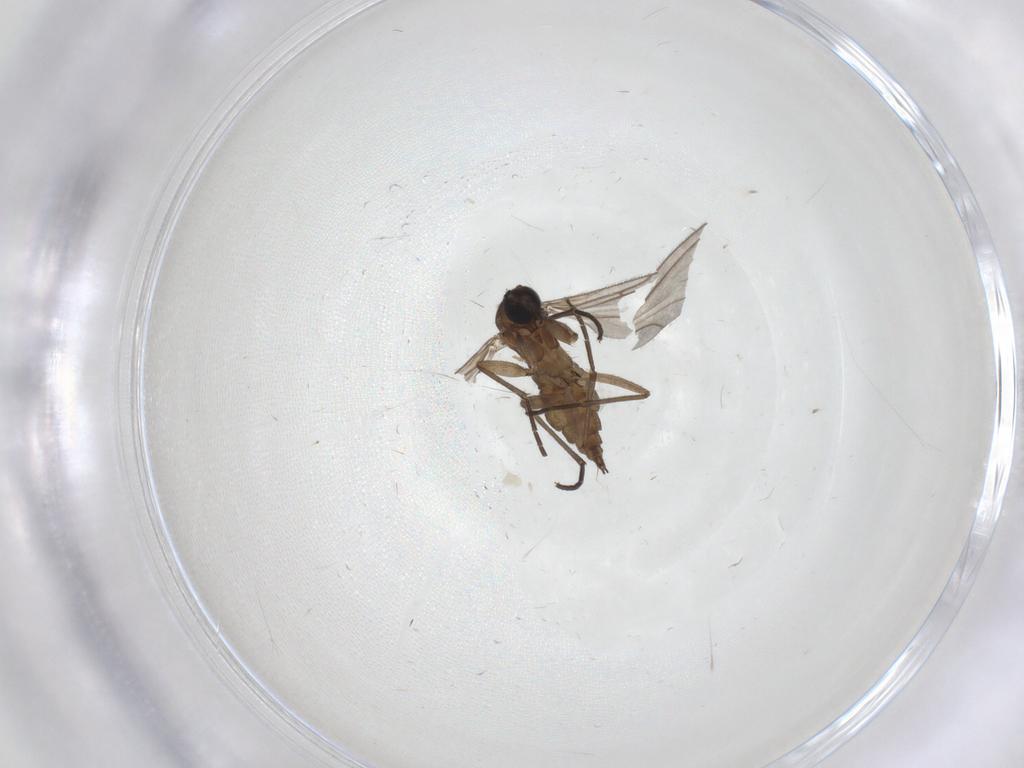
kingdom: Animalia
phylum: Arthropoda
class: Insecta
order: Diptera
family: Sciaridae
